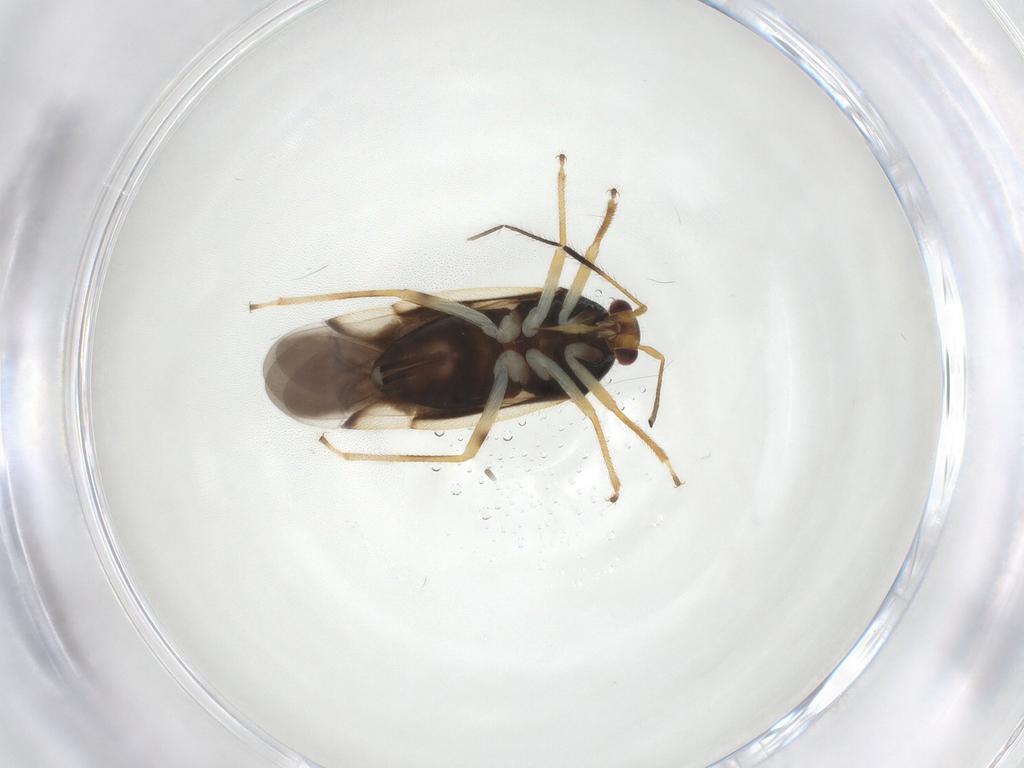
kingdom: Animalia
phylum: Arthropoda
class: Insecta
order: Hemiptera
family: Miridae
